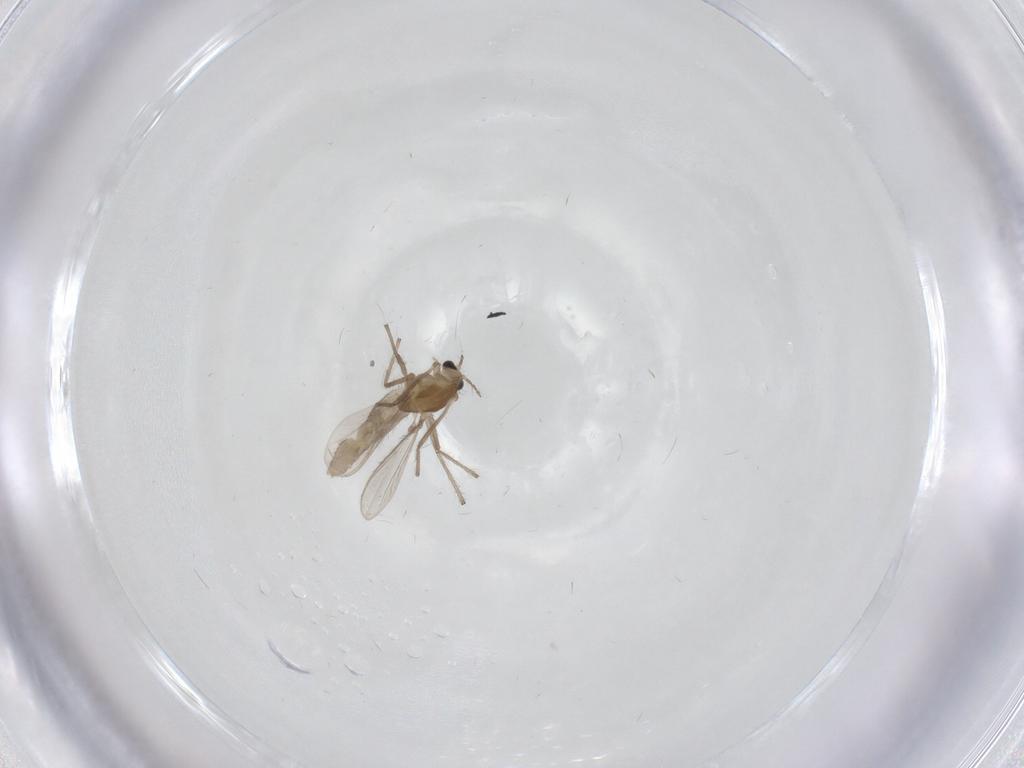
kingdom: Animalia
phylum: Arthropoda
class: Insecta
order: Diptera
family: Chironomidae
